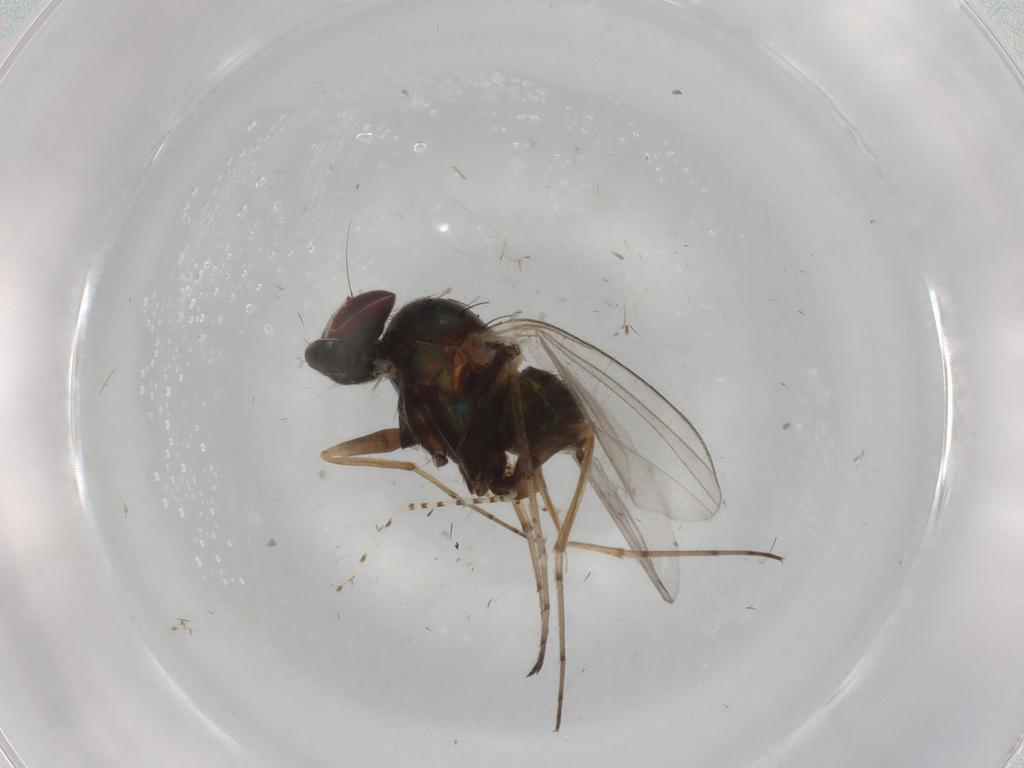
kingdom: Animalia
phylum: Arthropoda
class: Insecta
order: Diptera
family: Dolichopodidae
